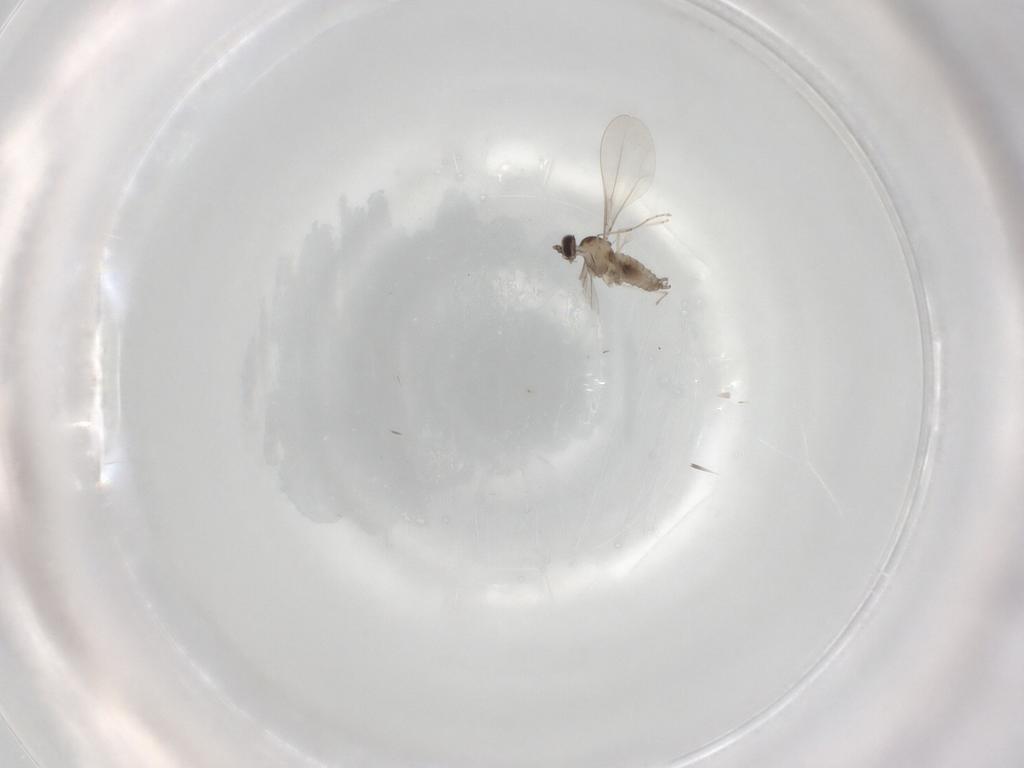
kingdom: Animalia
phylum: Arthropoda
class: Insecta
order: Diptera
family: Cecidomyiidae
